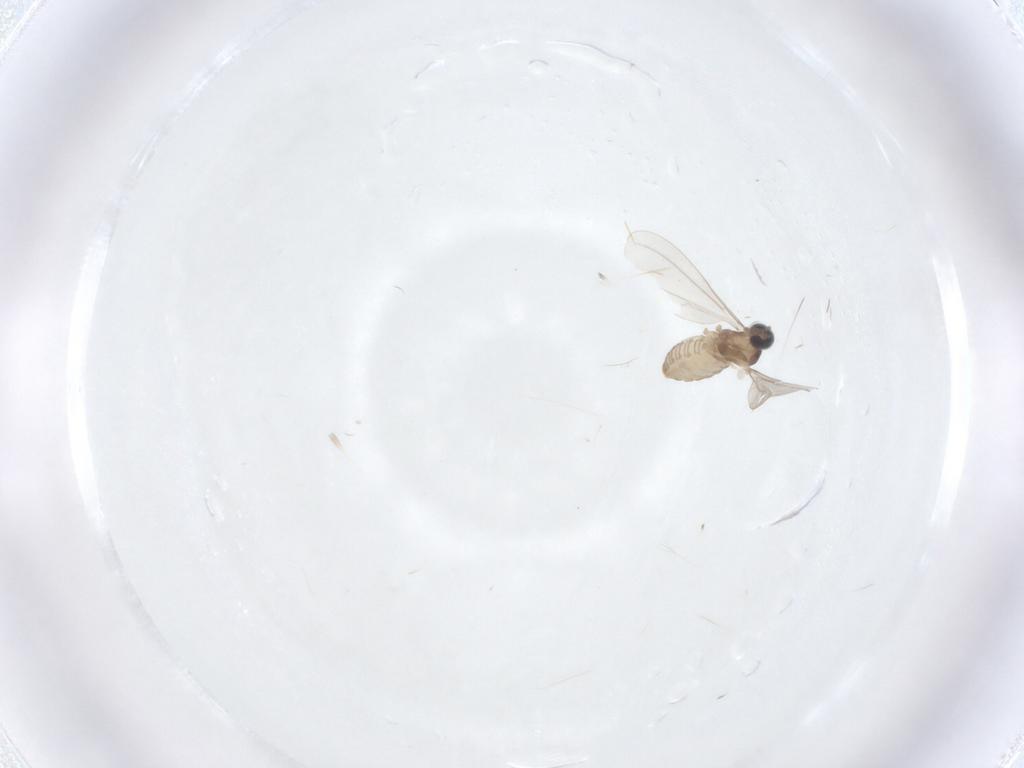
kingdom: Animalia
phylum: Arthropoda
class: Insecta
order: Diptera
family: Cecidomyiidae
